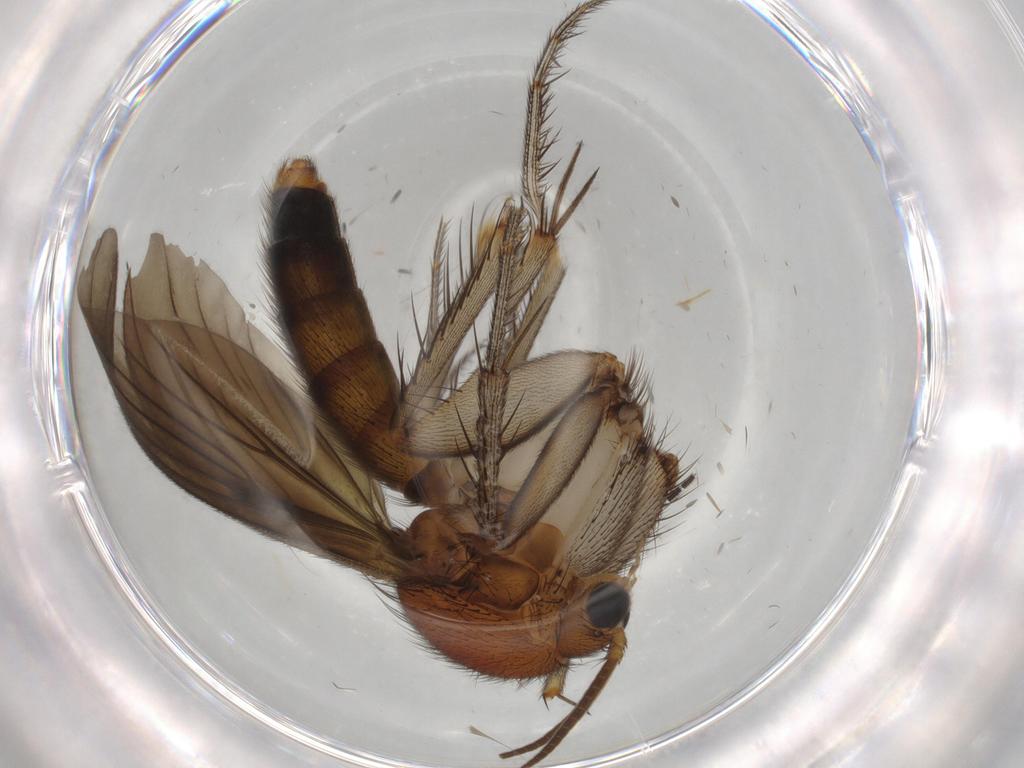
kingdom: Animalia
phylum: Arthropoda
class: Insecta
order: Diptera
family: Mycetophilidae
